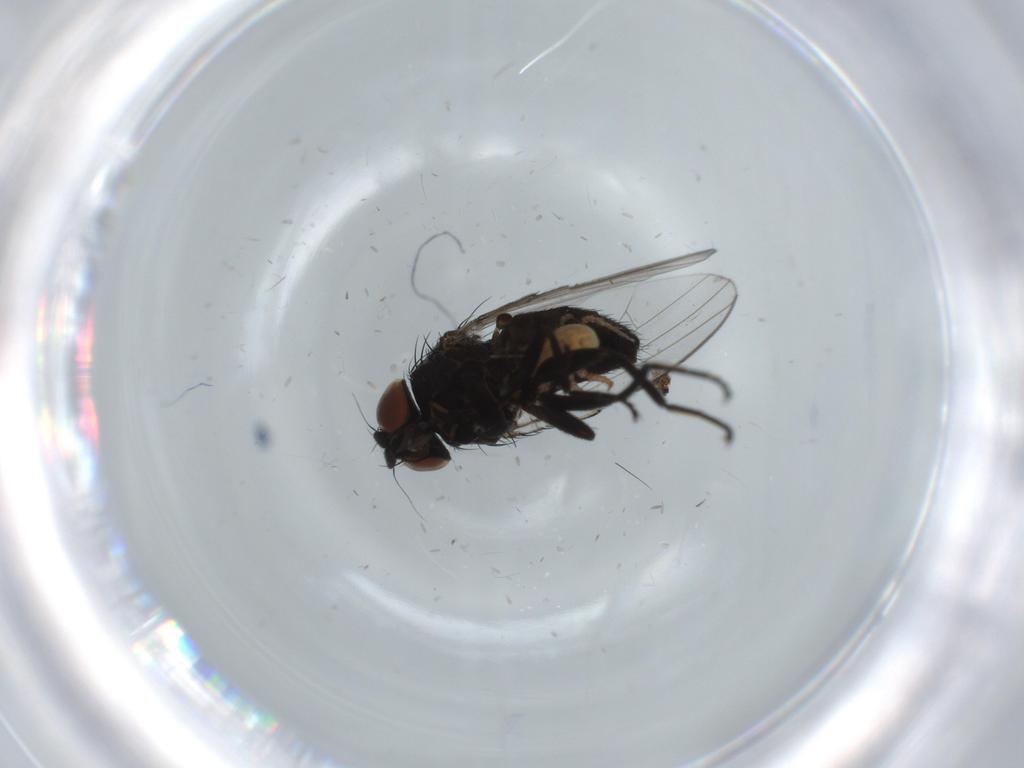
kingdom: Animalia
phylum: Arthropoda
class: Insecta
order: Diptera
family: Milichiidae
